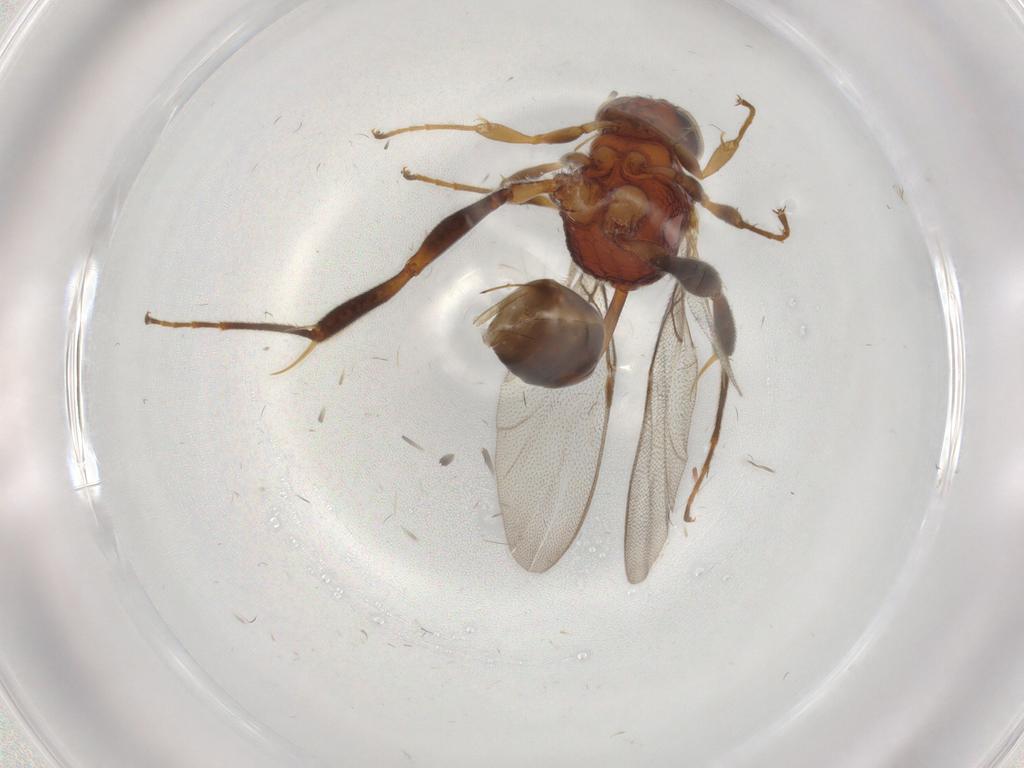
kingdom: Animalia
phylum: Arthropoda
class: Insecta
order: Hymenoptera
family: Evaniidae
